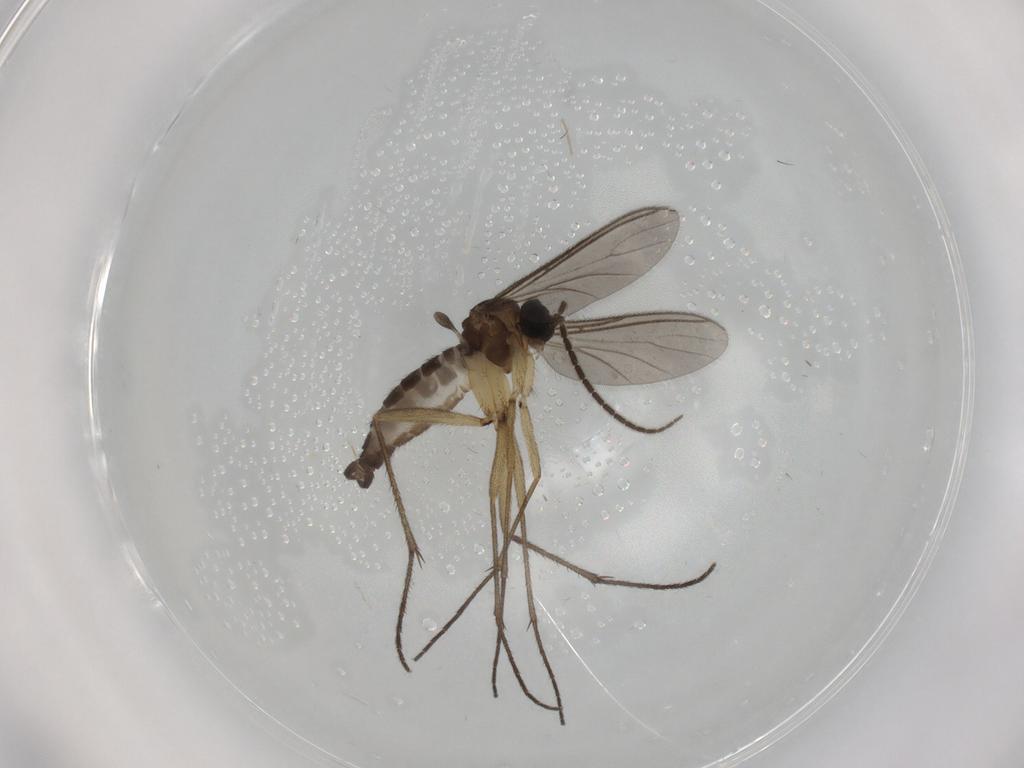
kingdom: Animalia
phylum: Arthropoda
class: Insecta
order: Diptera
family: Sciaridae
